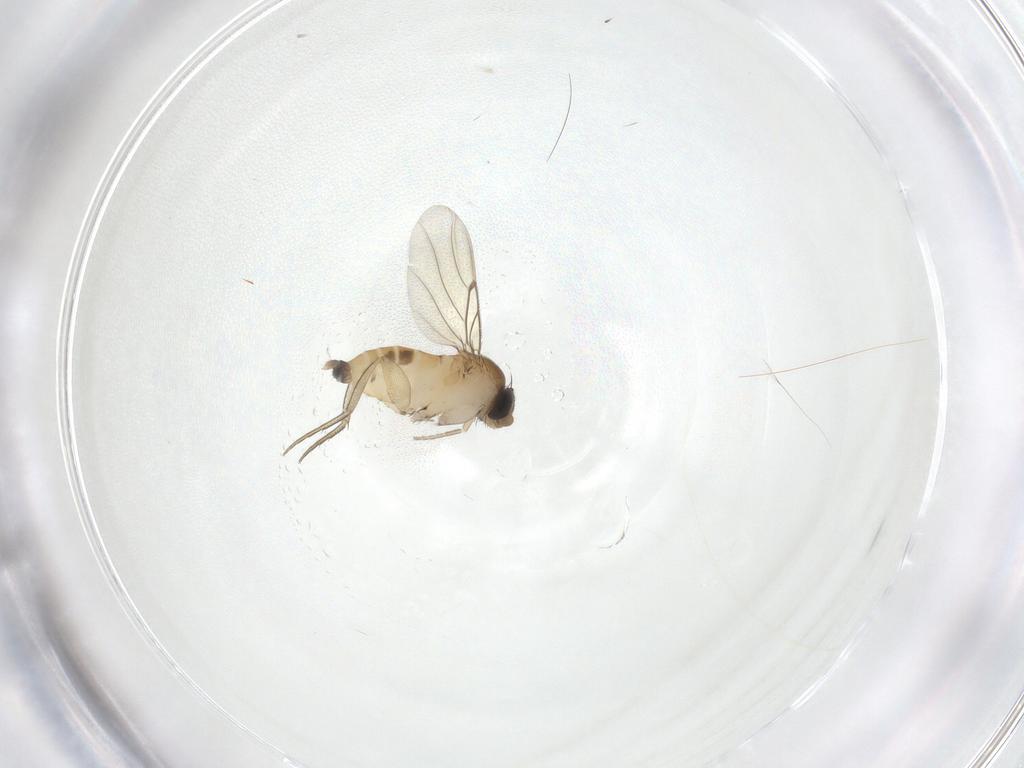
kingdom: Animalia
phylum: Arthropoda
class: Insecta
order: Diptera
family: Phoridae
